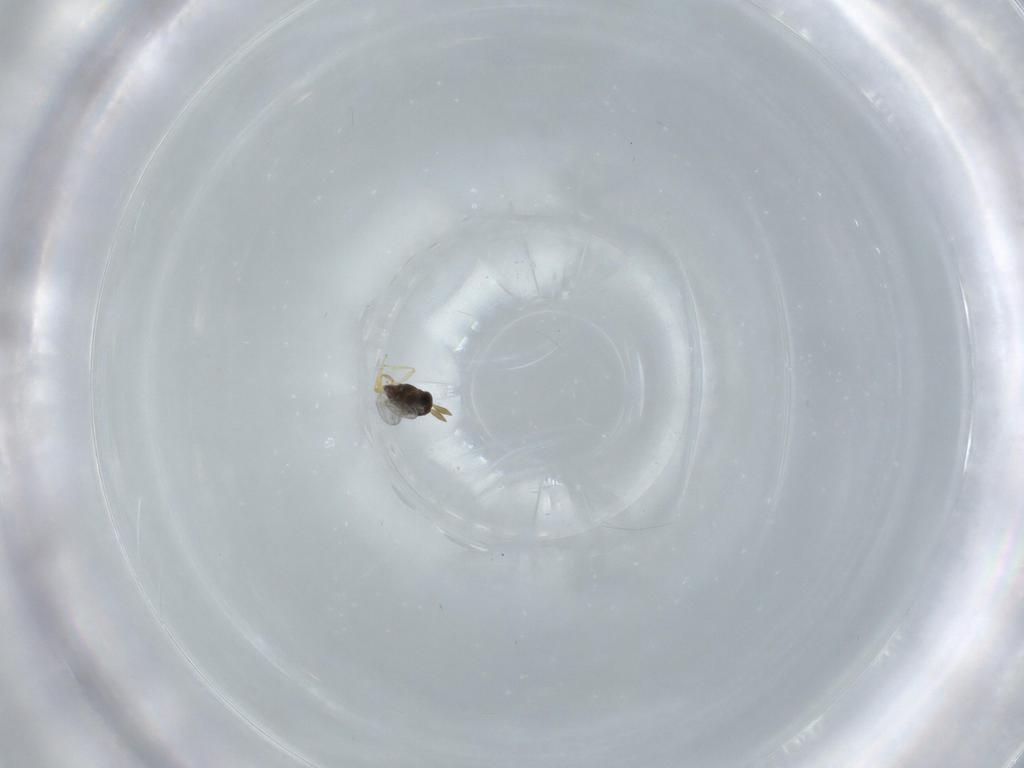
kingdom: Animalia
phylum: Arthropoda
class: Insecta
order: Hymenoptera
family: Encyrtidae
